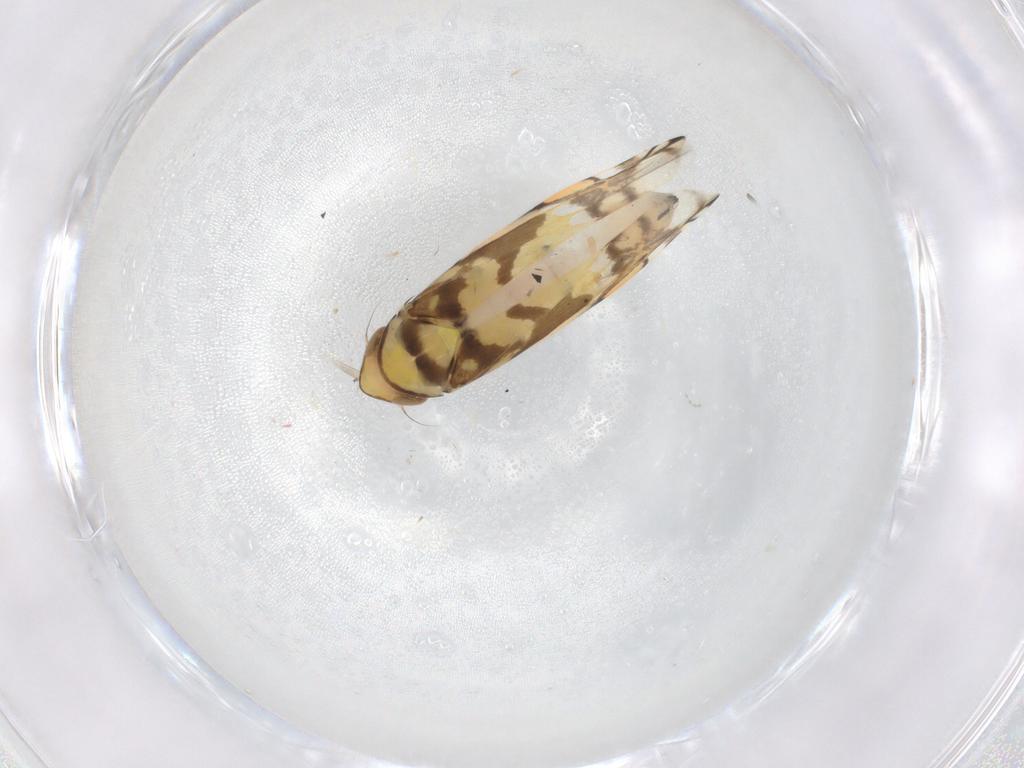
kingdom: Animalia
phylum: Arthropoda
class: Insecta
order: Hemiptera
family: Cicadellidae
